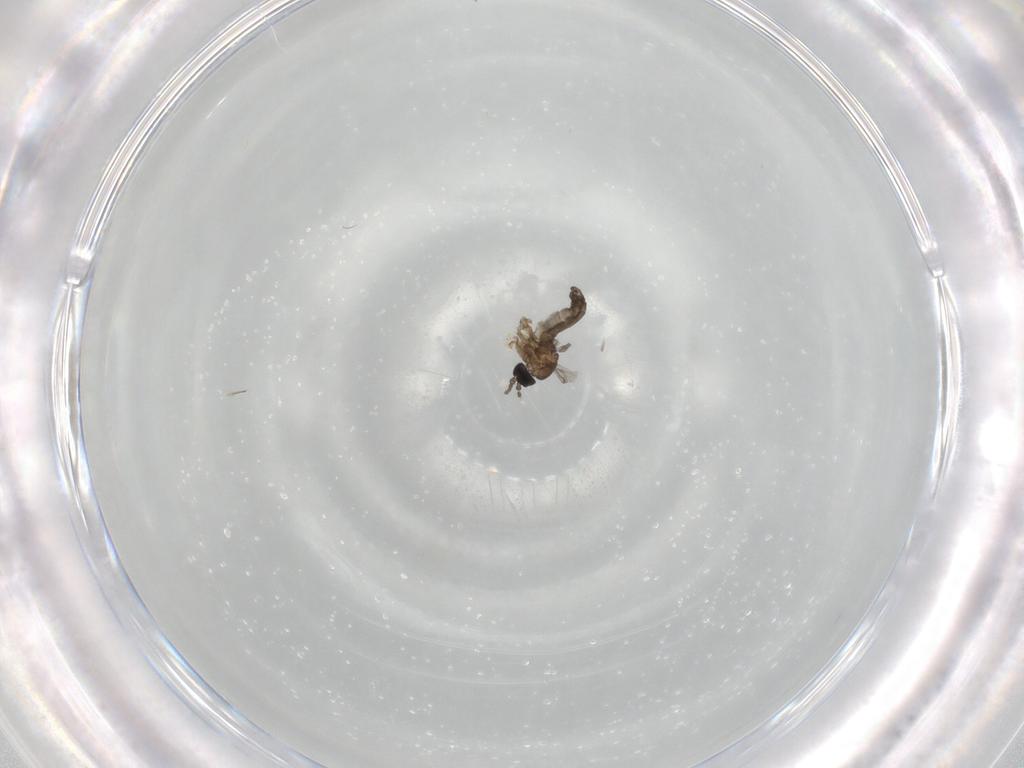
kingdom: Animalia
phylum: Arthropoda
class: Insecta
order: Diptera
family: Sciaridae
